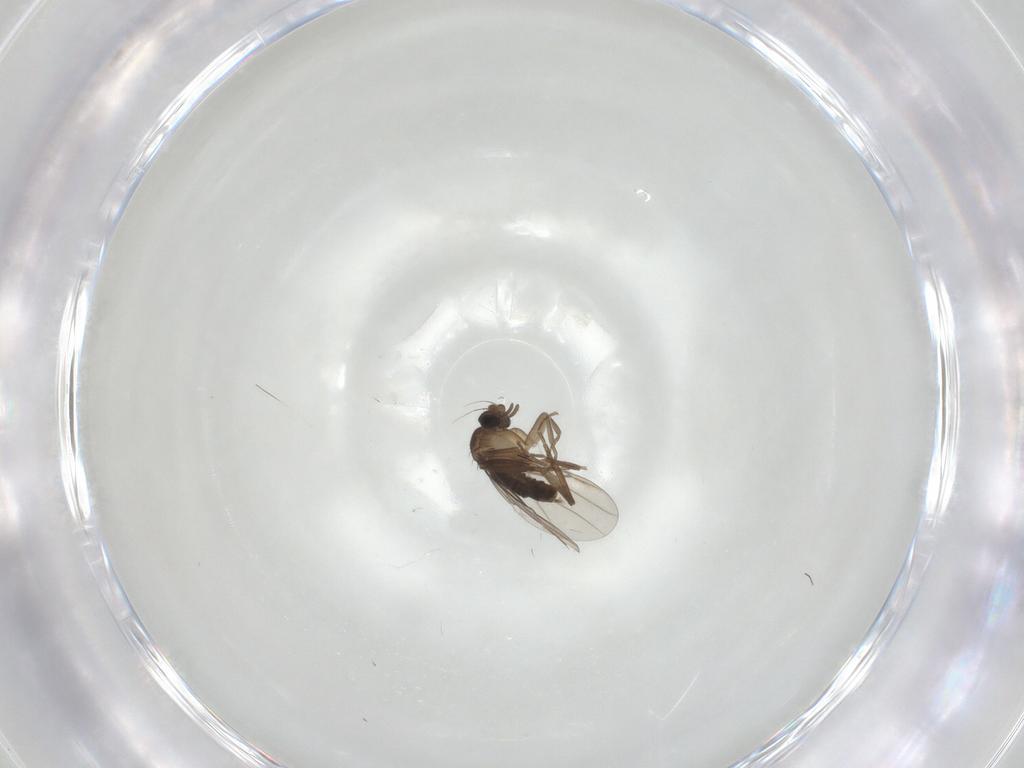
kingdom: Animalia
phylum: Arthropoda
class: Insecta
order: Diptera
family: Phoridae
